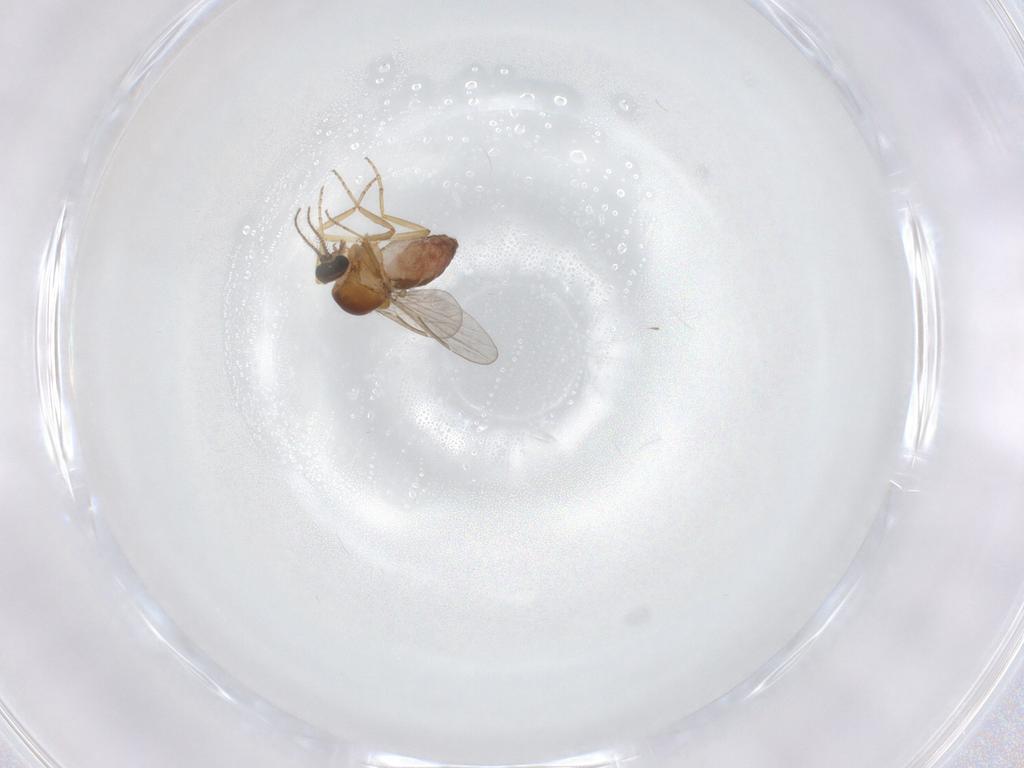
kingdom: Animalia
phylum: Arthropoda
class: Insecta
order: Diptera
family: Ceratopogonidae
